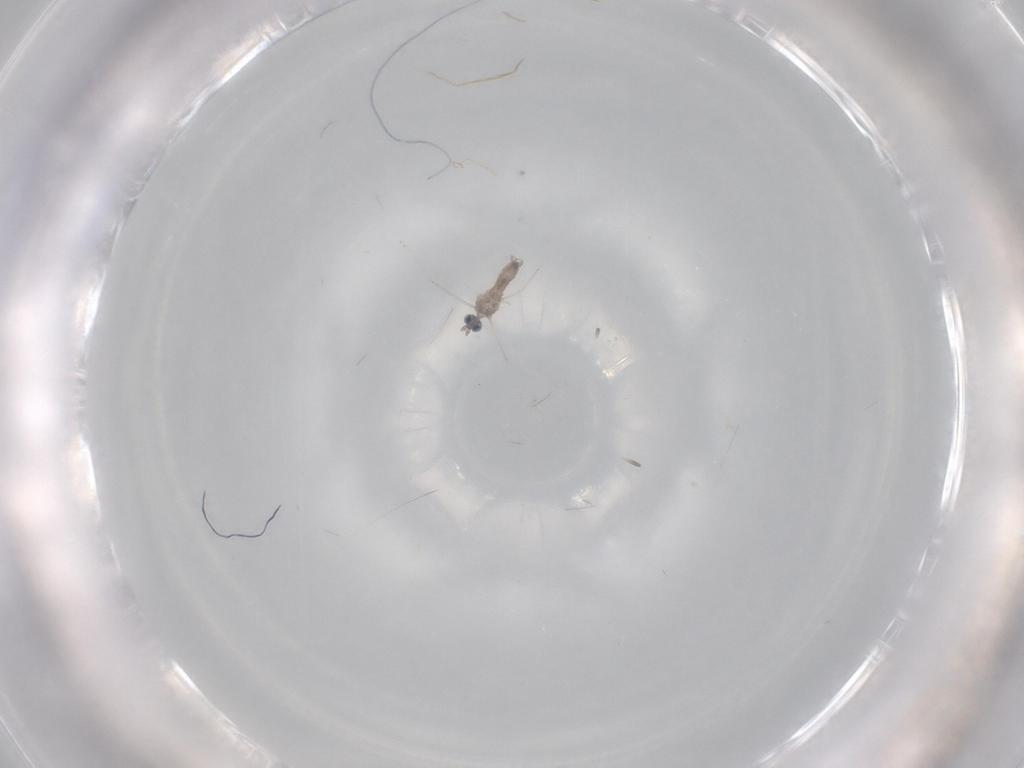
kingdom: Animalia
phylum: Arthropoda
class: Insecta
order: Diptera
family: Cecidomyiidae
